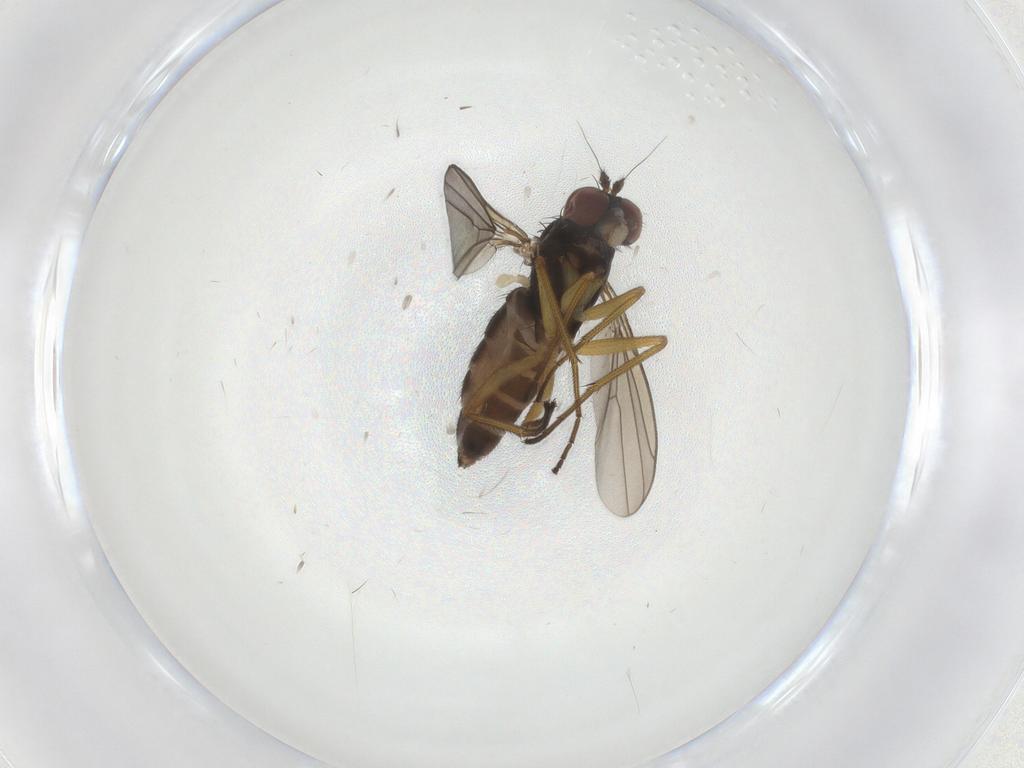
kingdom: Animalia
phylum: Arthropoda
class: Insecta
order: Diptera
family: Dolichopodidae
